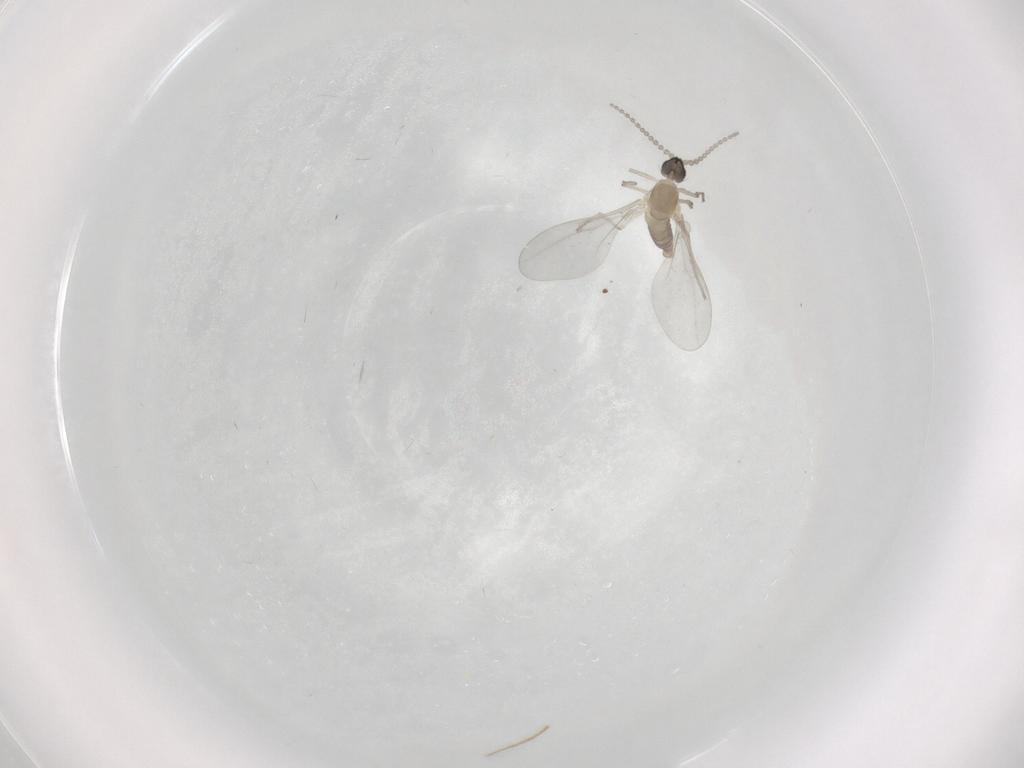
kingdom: Animalia
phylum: Arthropoda
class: Insecta
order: Diptera
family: Cecidomyiidae
